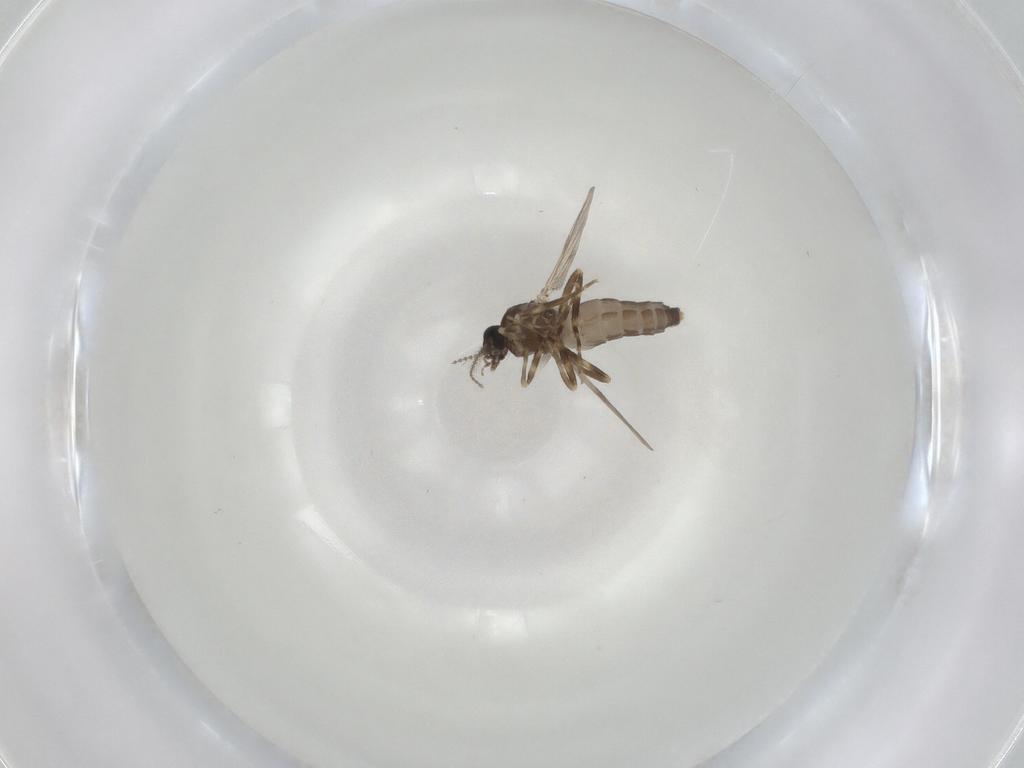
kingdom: Animalia
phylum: Arthropoda
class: Insecta
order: Diptera
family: Ceratopogonidae
